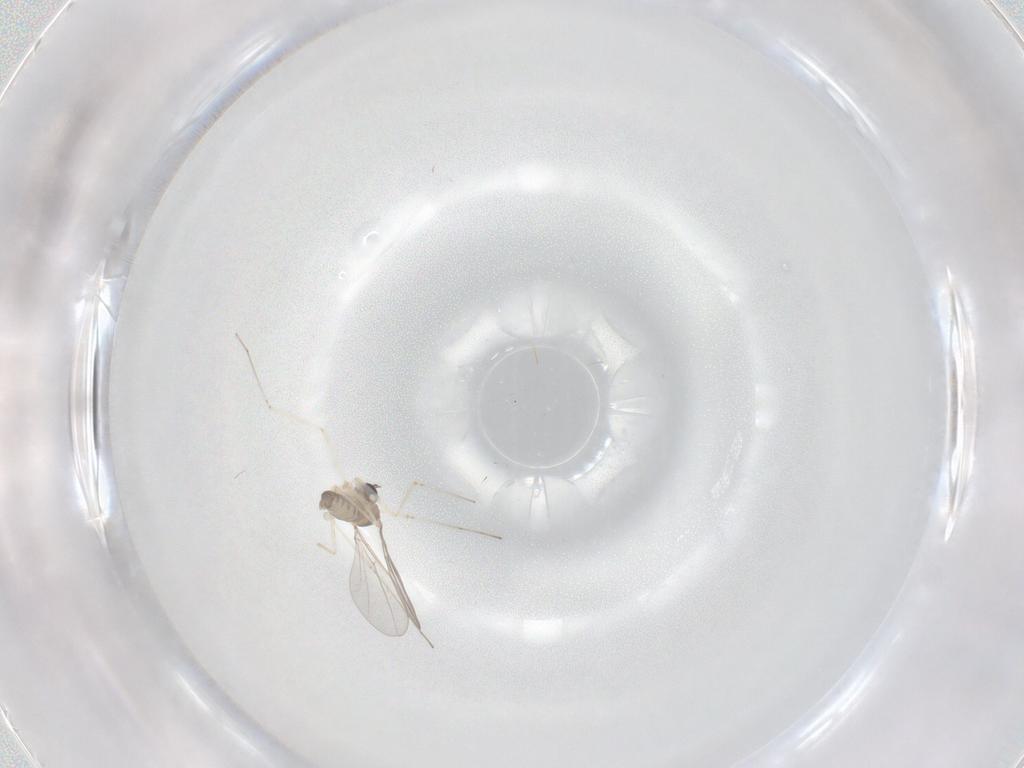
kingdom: Animalia
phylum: Arthropoda
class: Insecta
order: Diptera
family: Cecidomyiidae
